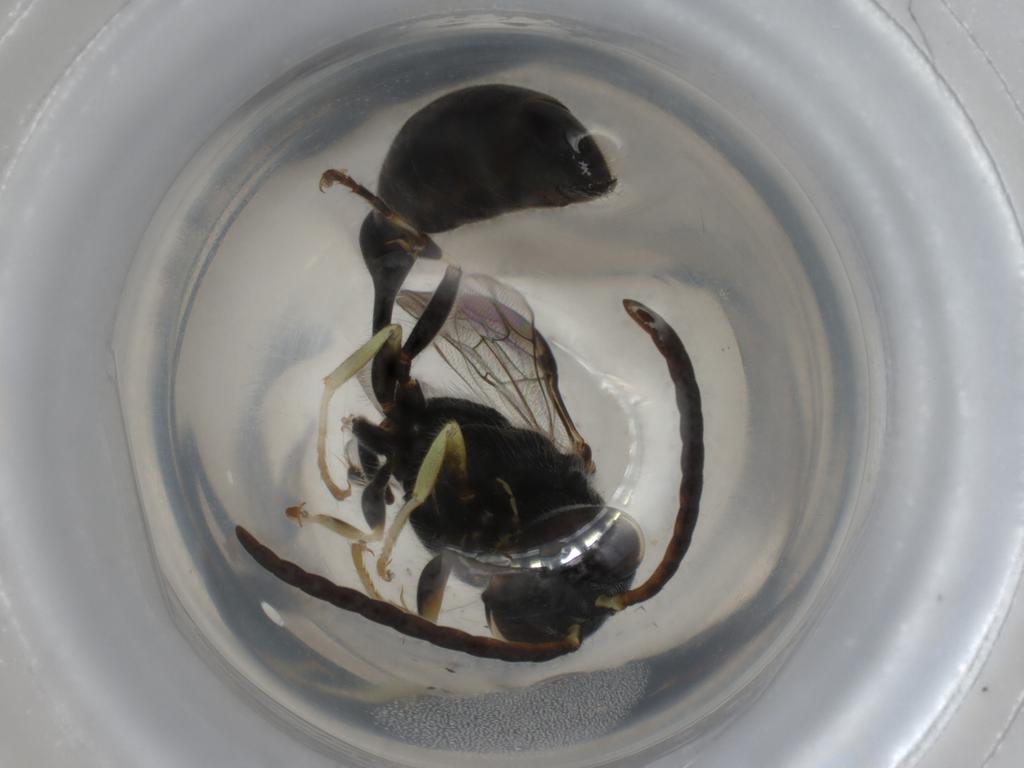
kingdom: Animalia
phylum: Arthropoda
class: Insecta
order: Hymenoptera
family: Psenidae
